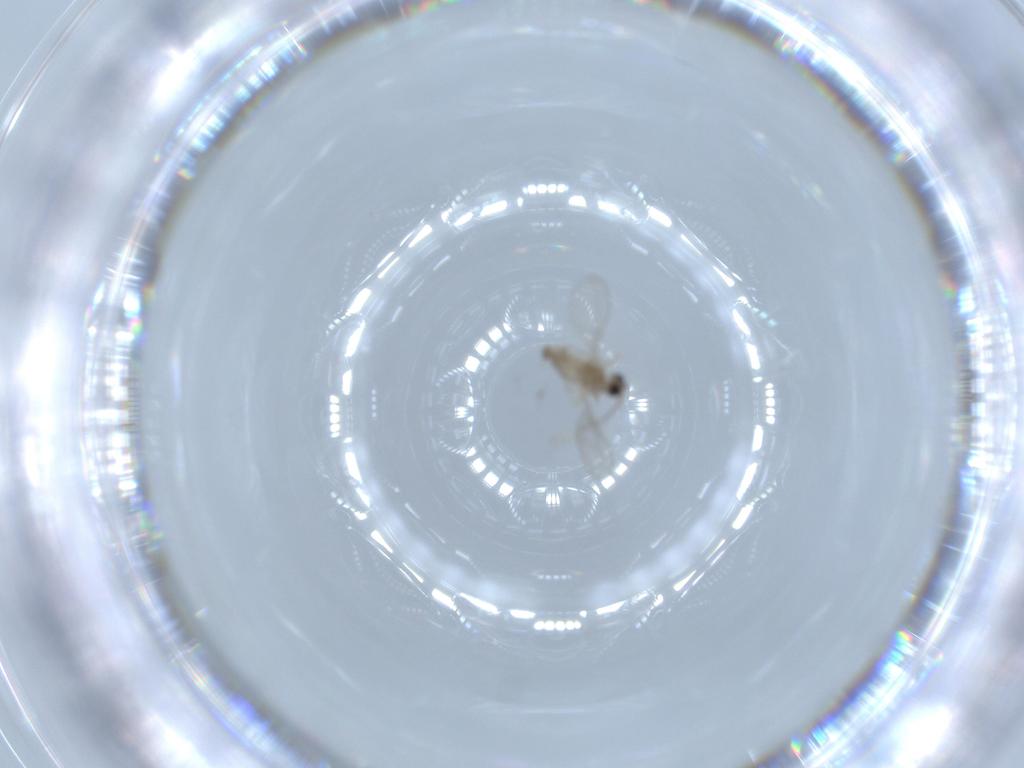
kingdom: Animalia
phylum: Arthropoda
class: Insecta
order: Diptera
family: Cecidomyiidae
